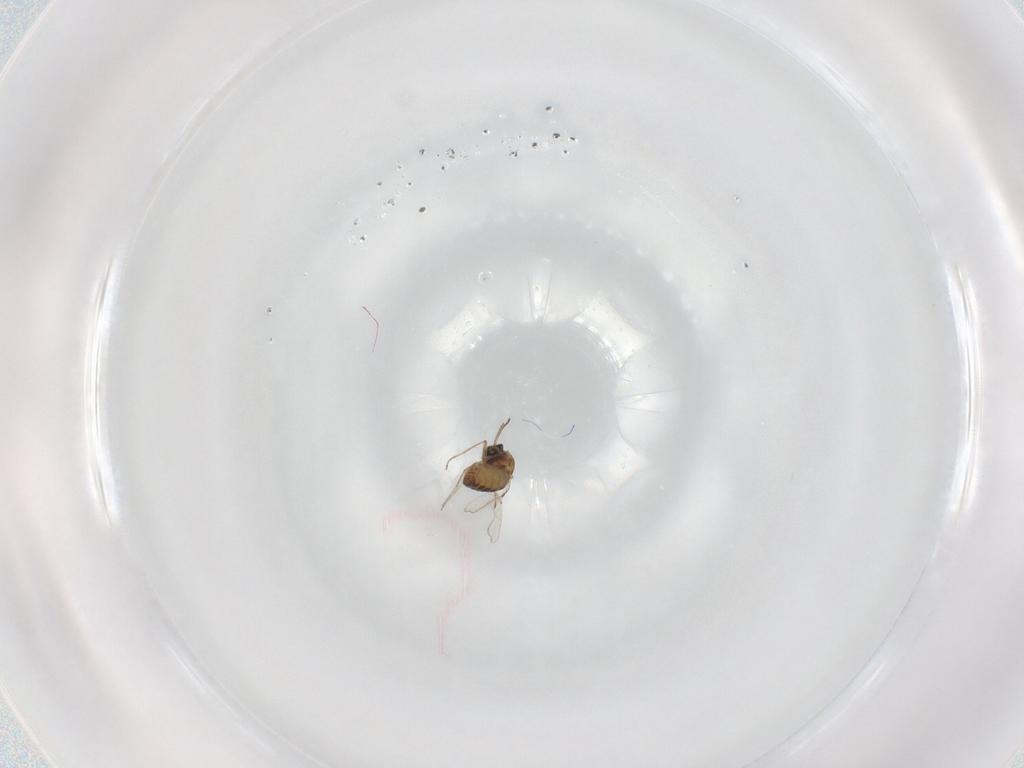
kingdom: Animalia
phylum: Arthropoda
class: Insecta
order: Diptera
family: Ceratopogonidae
